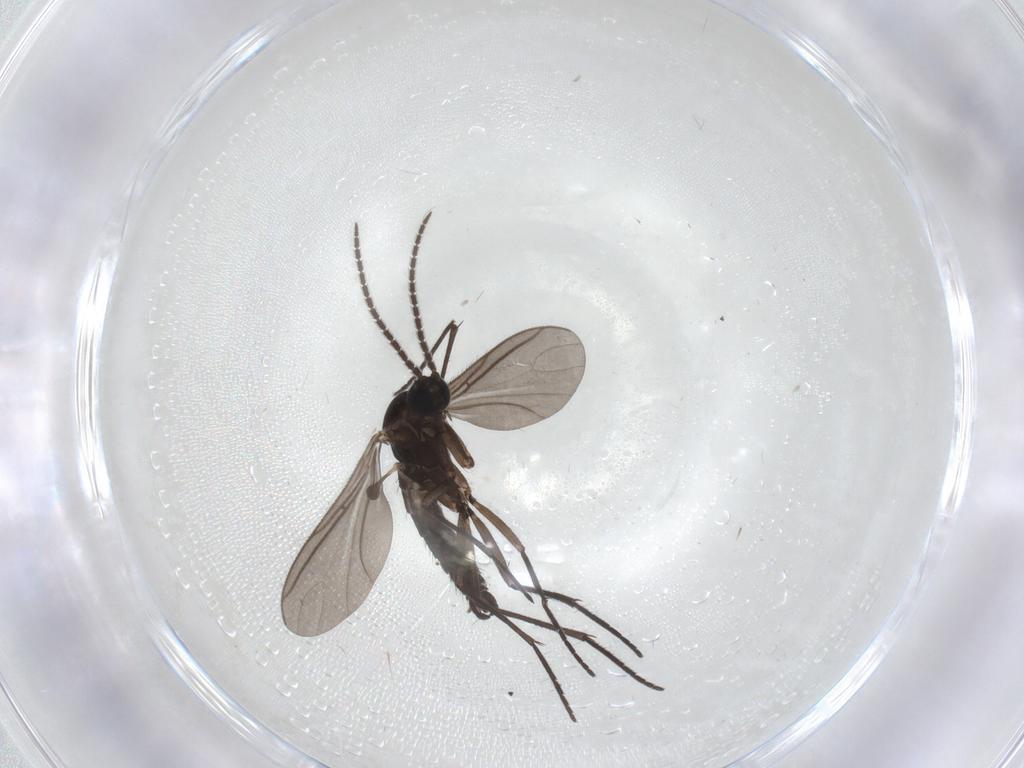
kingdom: Animalia
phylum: Arthropoda
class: Insecta
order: Diptera
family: Sciaridae
